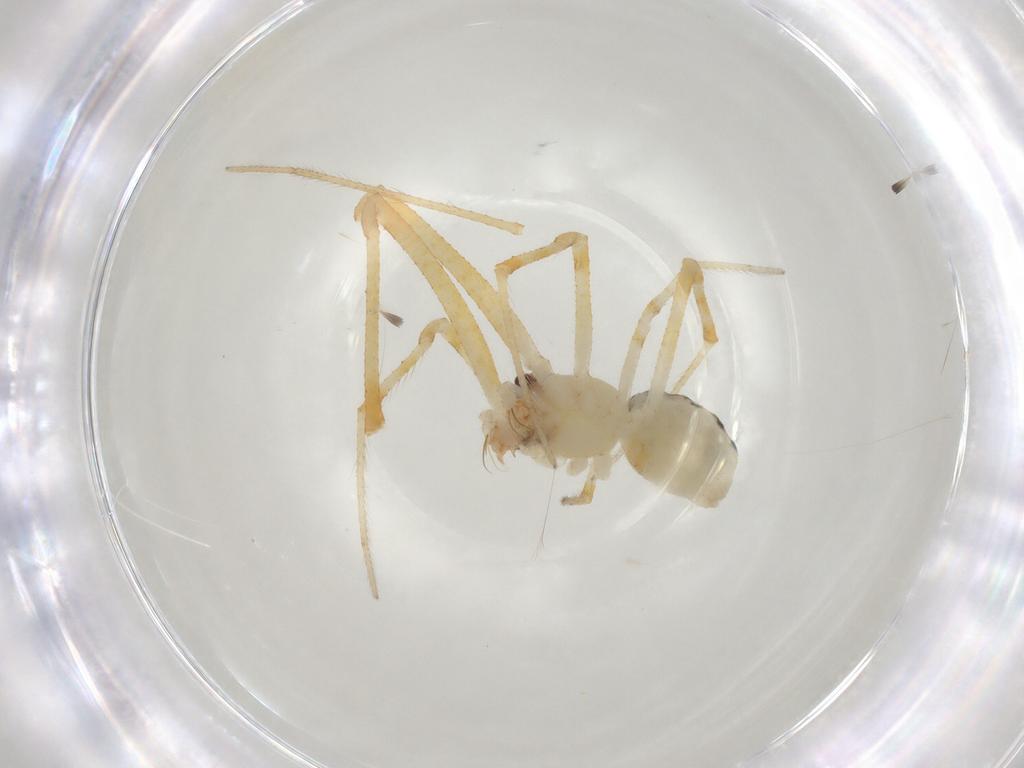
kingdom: Animalia
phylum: Arthropoda
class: Arachnida
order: Araneae
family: Theridiidae
